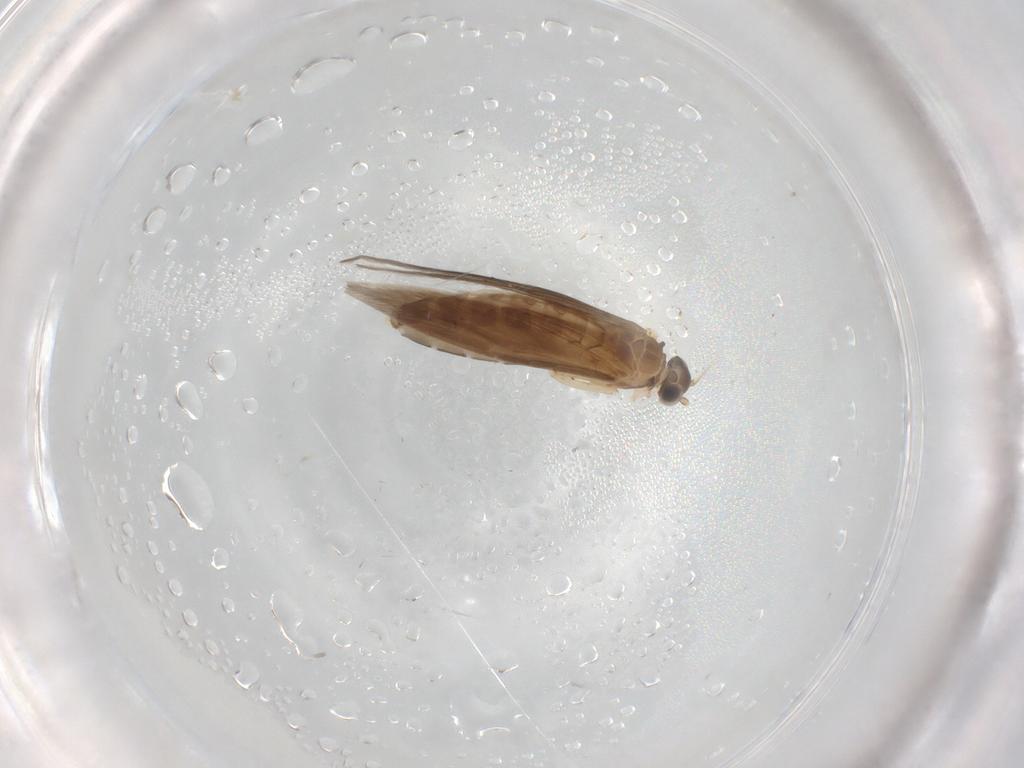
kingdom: Animalia
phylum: Arthropoda
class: Insecta
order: Trichoptera
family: Hydroptilidae
